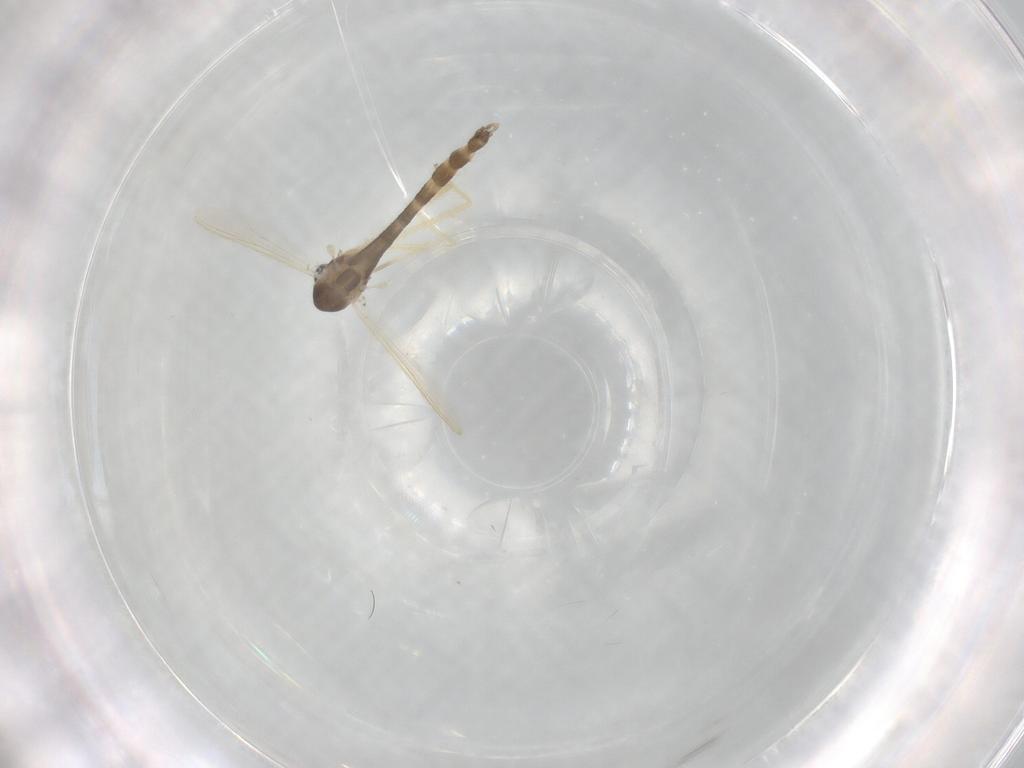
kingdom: Animalia
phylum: Arthropoda
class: Insecta
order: Diptera
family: Chironomidae
